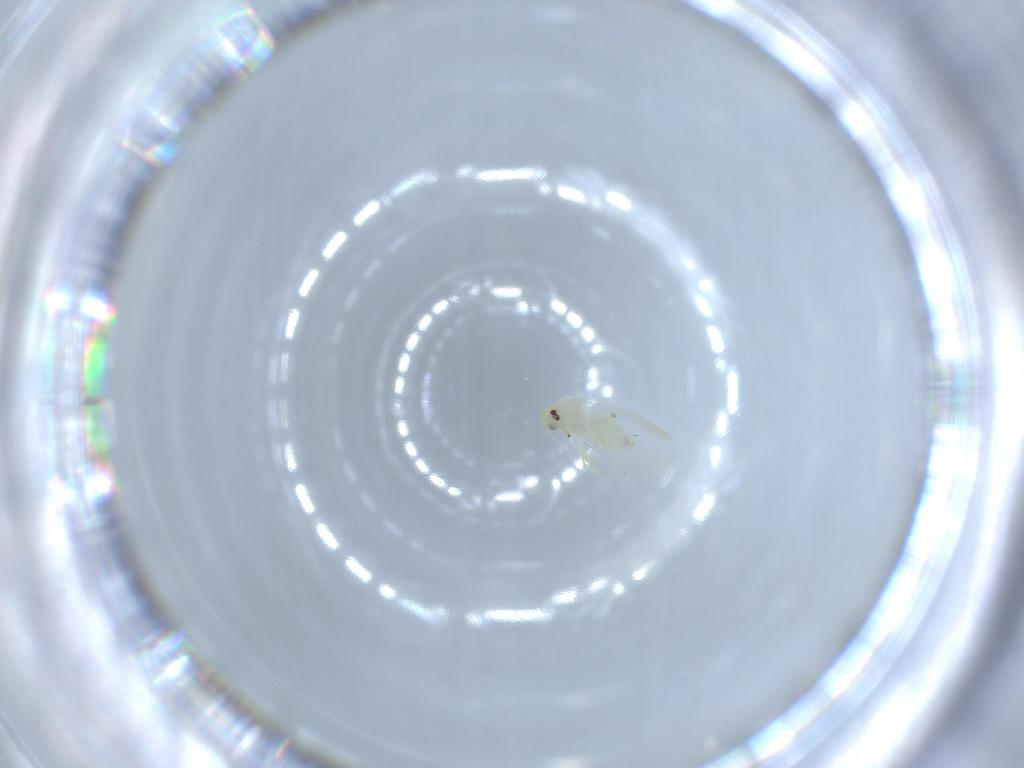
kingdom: Animalia
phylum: Arthropoda
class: Insecta
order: Hemiptera
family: Aleyrodidae
